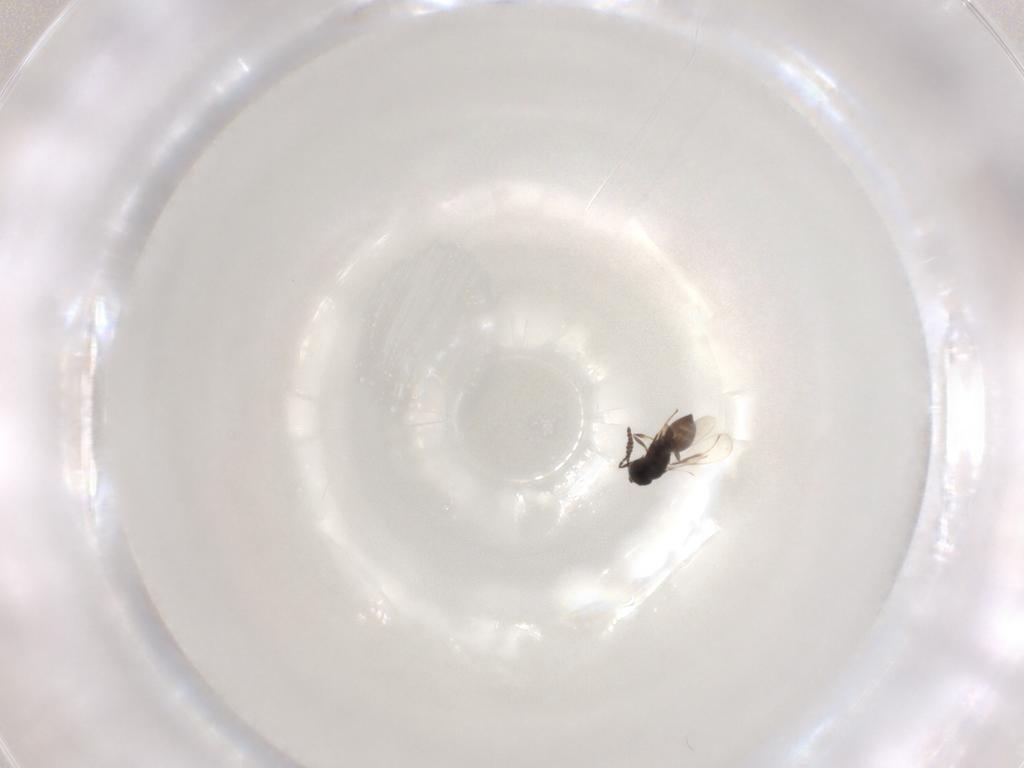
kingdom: Animalia
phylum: Arthropoda
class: Insecta
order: Hymenoptera
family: Scelionidae
